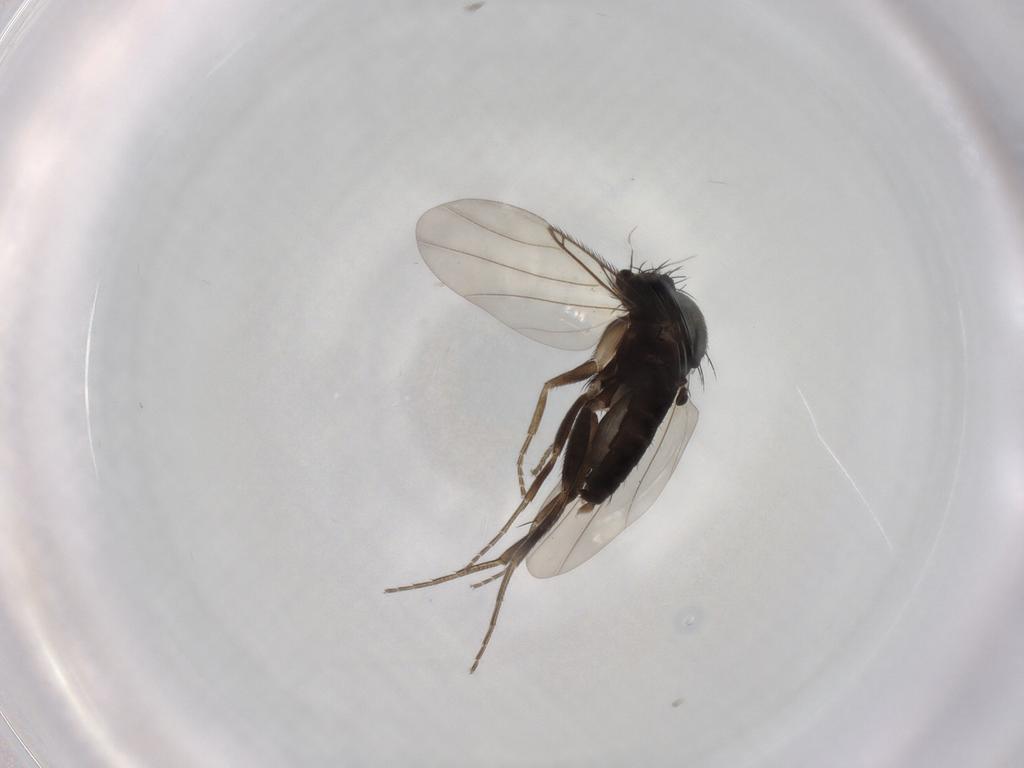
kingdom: Animalia
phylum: Arthropoda
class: Insecta
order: Diptera
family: Phoridae
